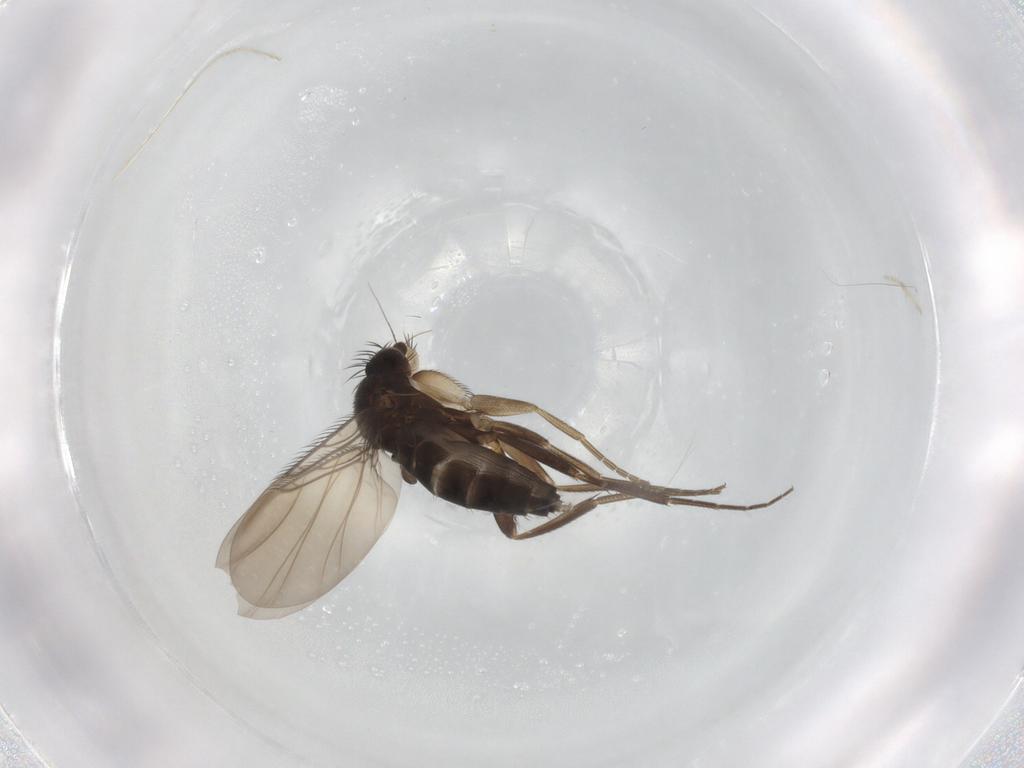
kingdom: Animalia
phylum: Arthropoda
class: Insecta
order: Diptera
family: Phoridae
